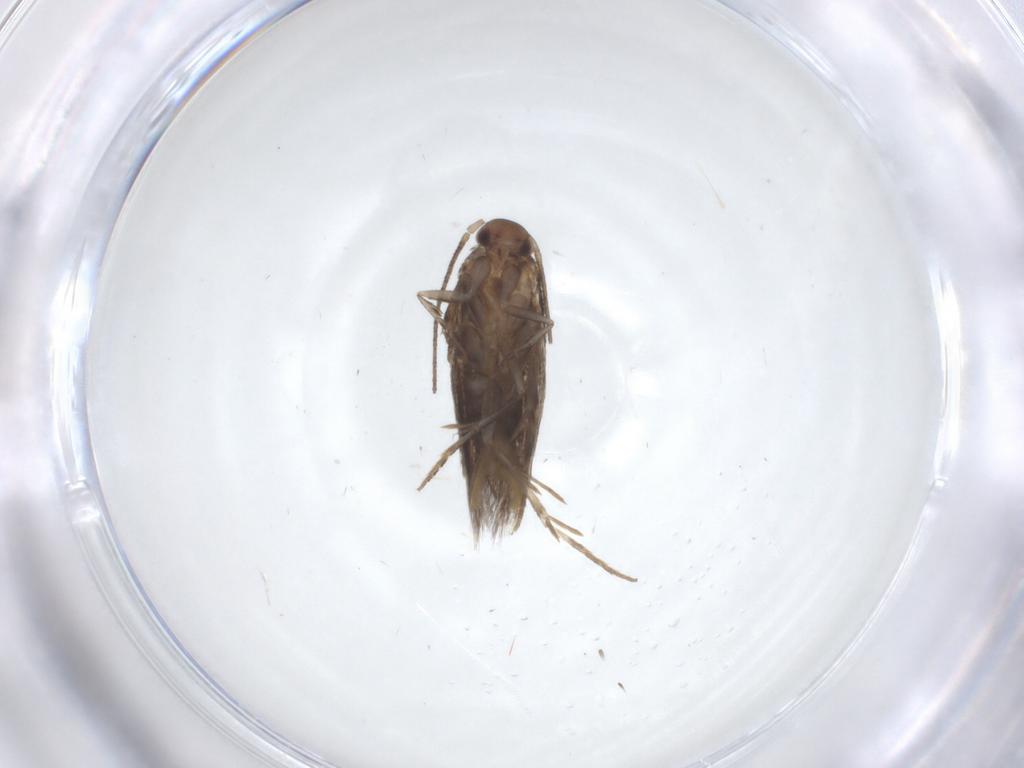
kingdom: Animalia
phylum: Arthropoda
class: Insecta
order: Lepidoptera
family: Elachistidae
